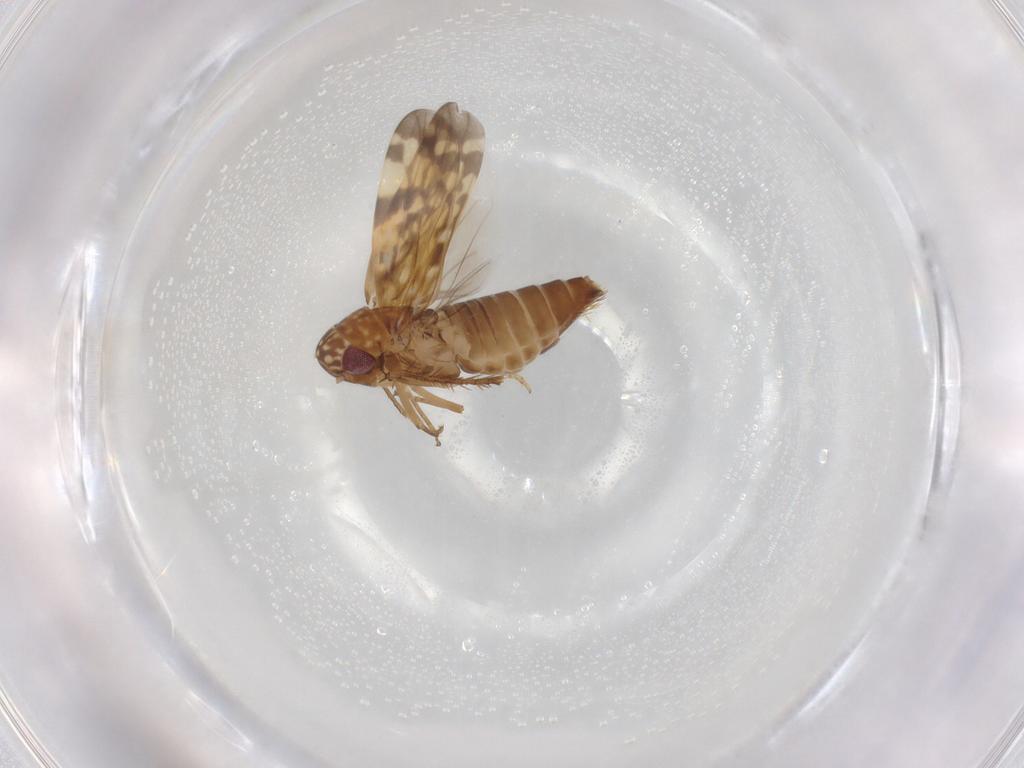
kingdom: Animalia
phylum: Arthropoda
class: Insecta
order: Hemiptera
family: Cicadellidae
